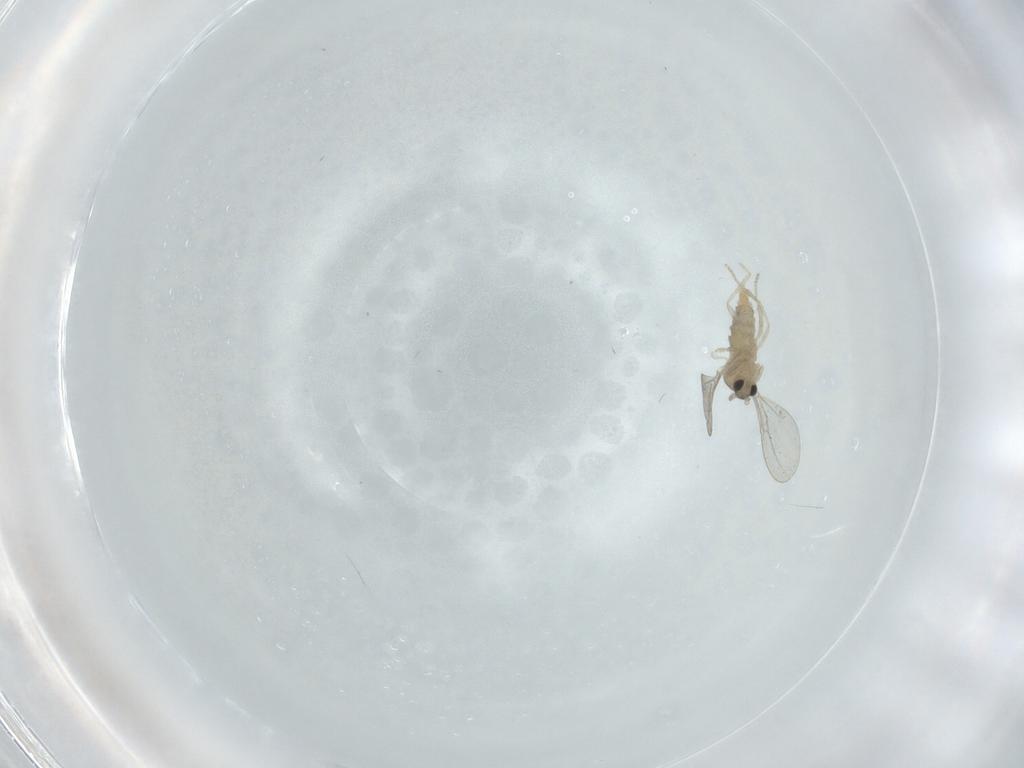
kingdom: Animalia
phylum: Arthropoda
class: Insecta
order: Diptera
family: Cecidomyiidae
